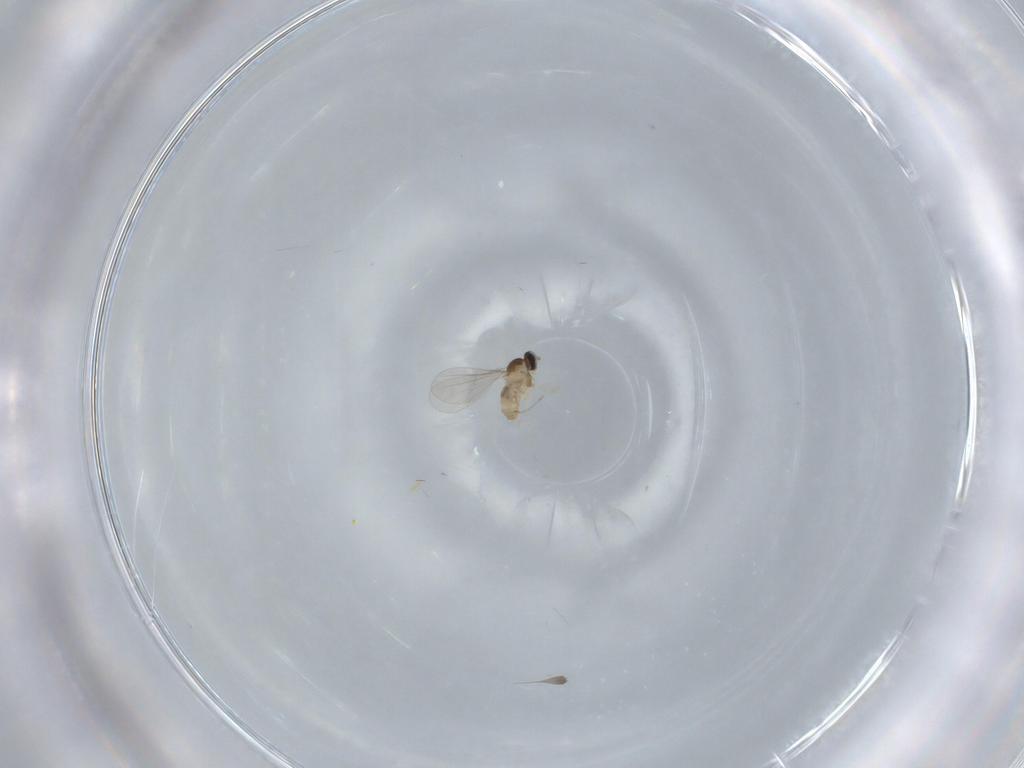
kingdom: Animalia
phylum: Arthropoda
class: Insecta
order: Diptera
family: Cecidomyiidae
